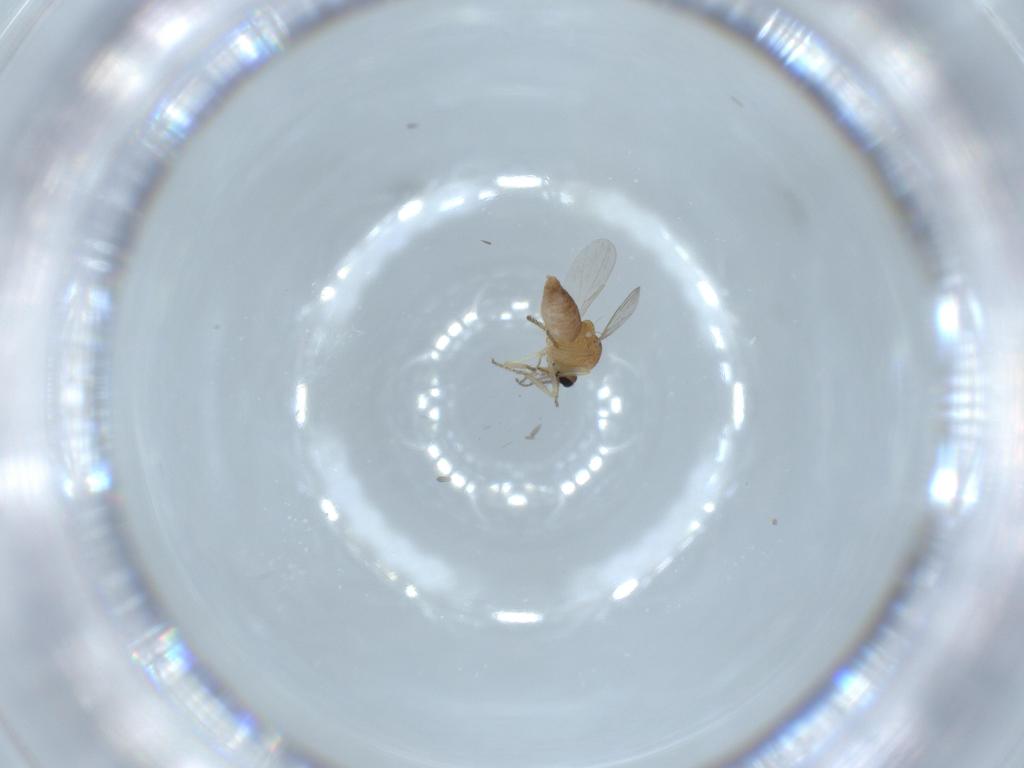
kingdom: Animalia
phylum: Arthropoda
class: Insecta
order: Diptera
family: Ceratopogonidae
